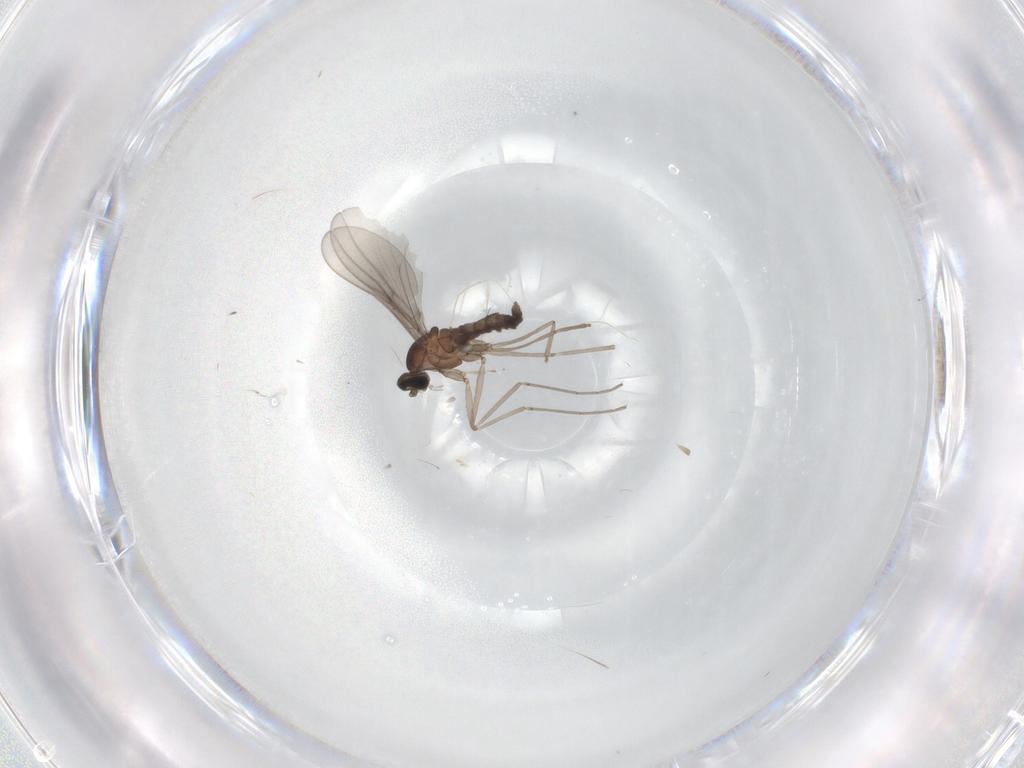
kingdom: Animalia
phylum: Arthropoda
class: Insecta
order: Diptera
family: Cecidomyiidae
